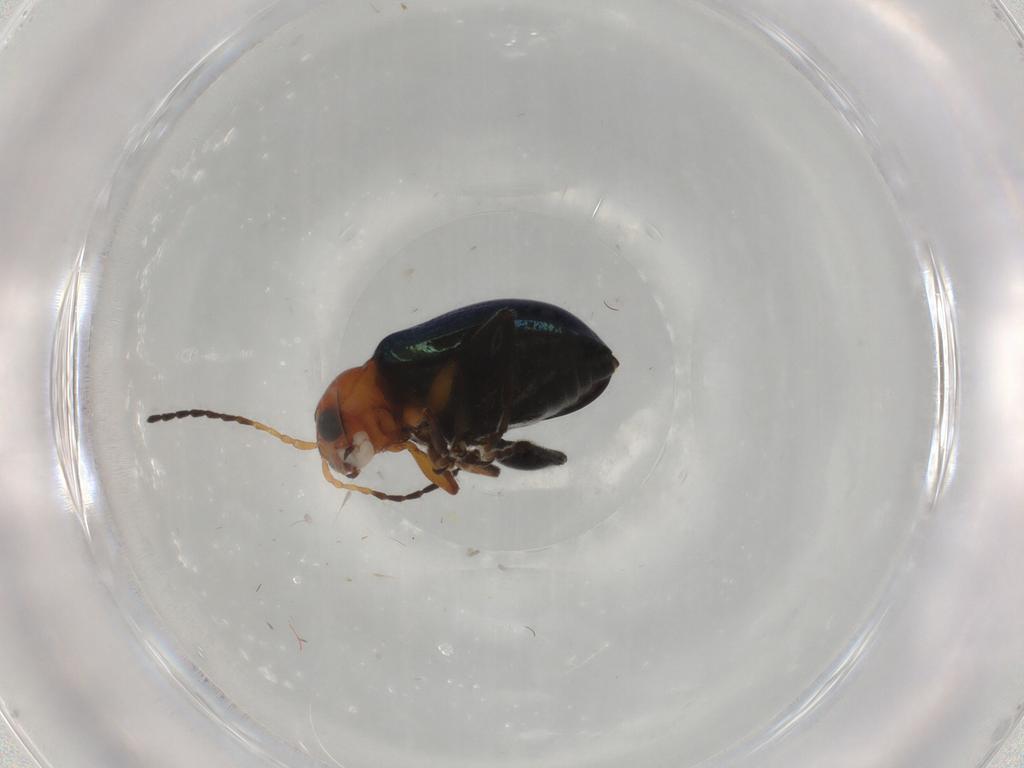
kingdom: Animalia
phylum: Arthropoda
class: Insecta
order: Coleoptera
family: Chrysomelidae
